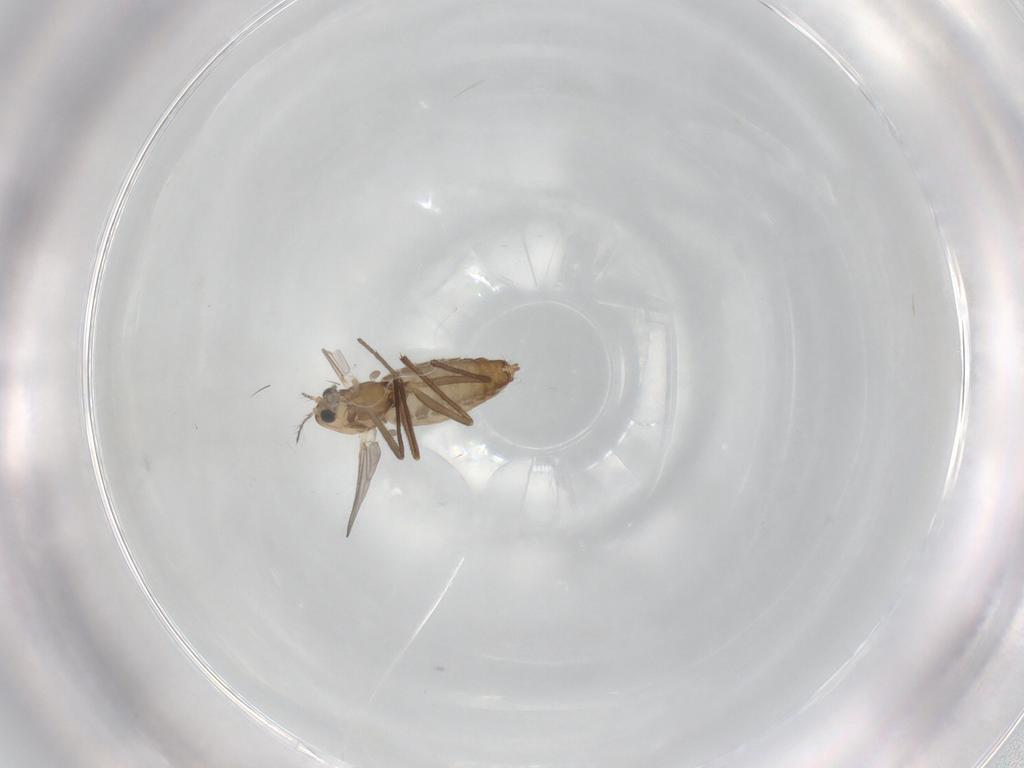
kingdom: Animalia
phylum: Arthropoda
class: Insecta
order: Diptera
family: Chironomidae
